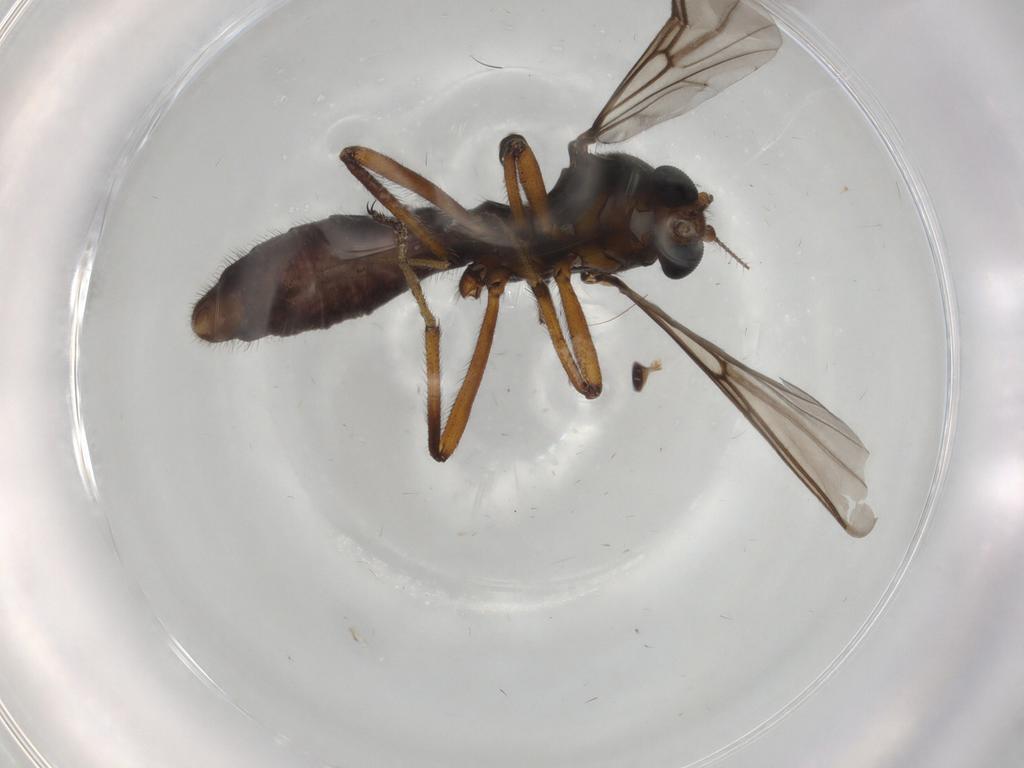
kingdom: Animalia
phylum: Arthropoda
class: Insecta
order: Diptera
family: Ceratopogonidae
